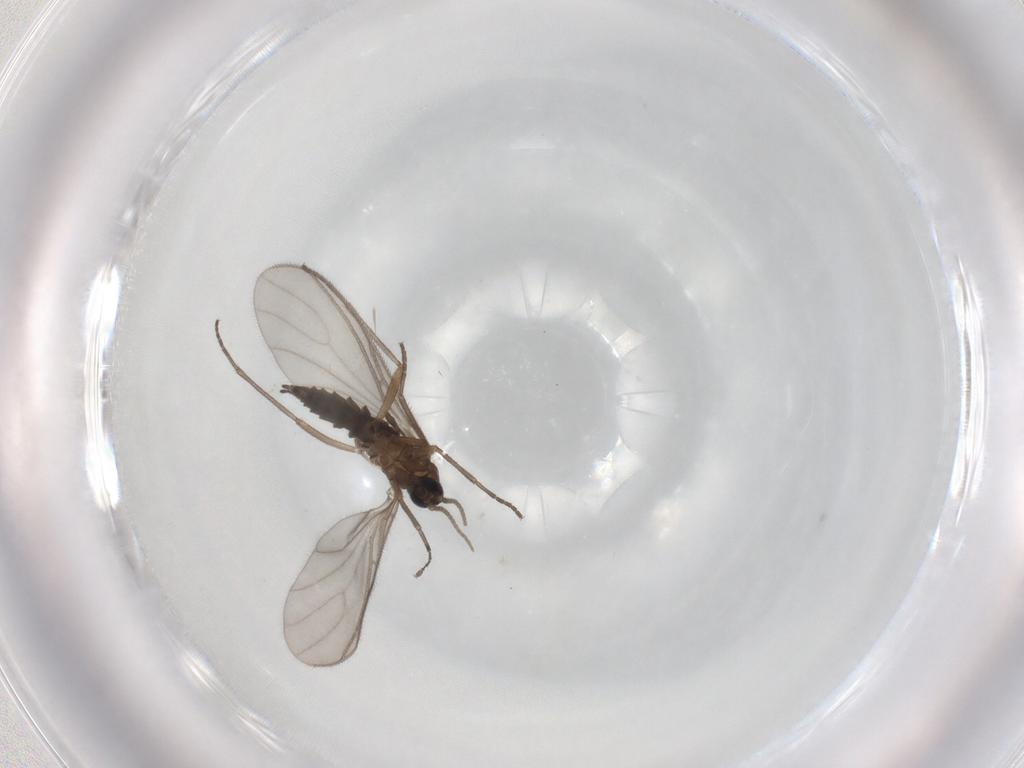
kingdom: Animalia
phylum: Arthropoda
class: Insecta
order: Diptera
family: Sciaridae
